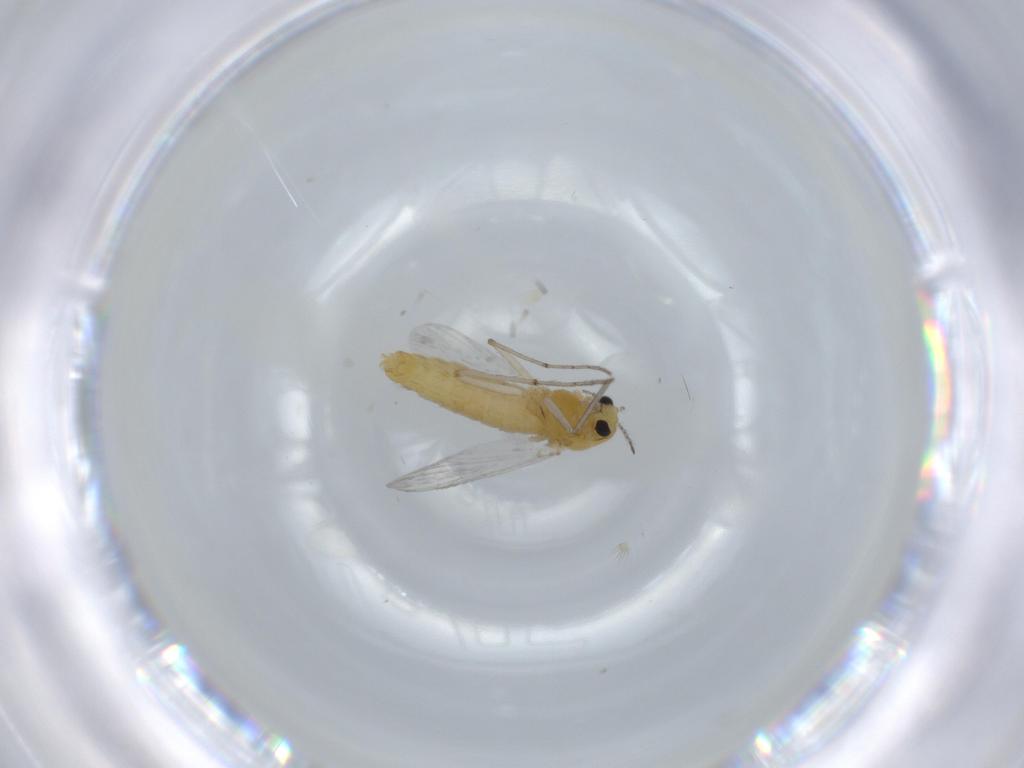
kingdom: Animalia
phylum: Arthropoda
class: Insecta
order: Diptera
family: Chironomidae
